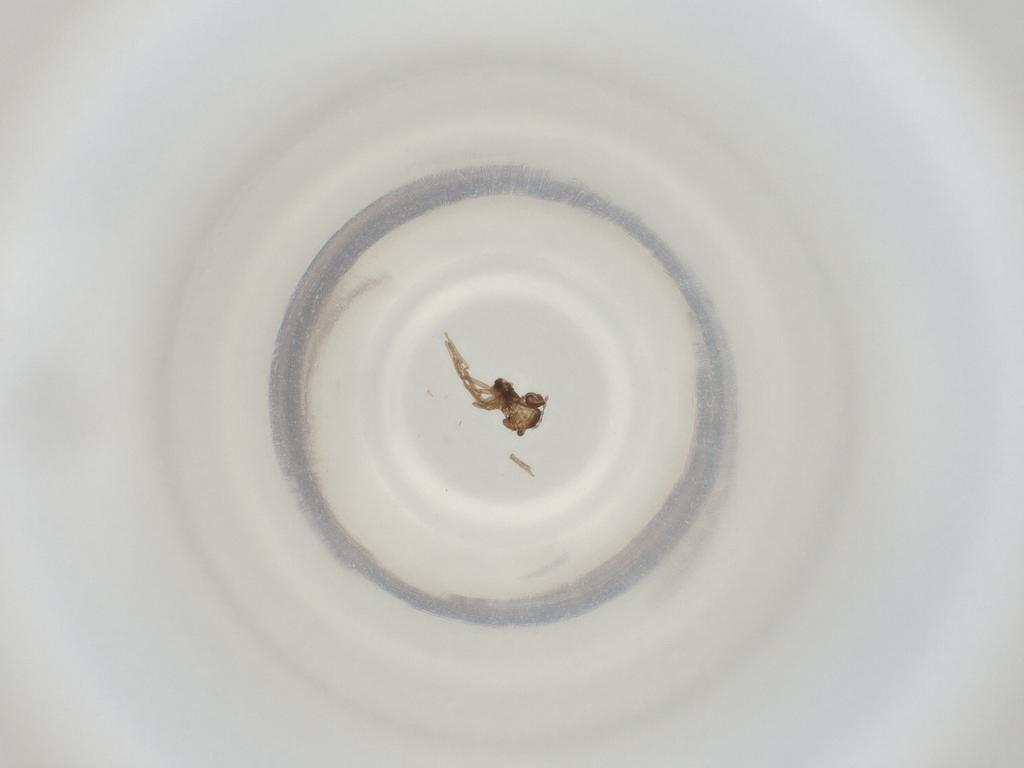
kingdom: Animalia
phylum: Arthropoda
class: Insecta
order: Diptera
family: Cecidomyiidae
